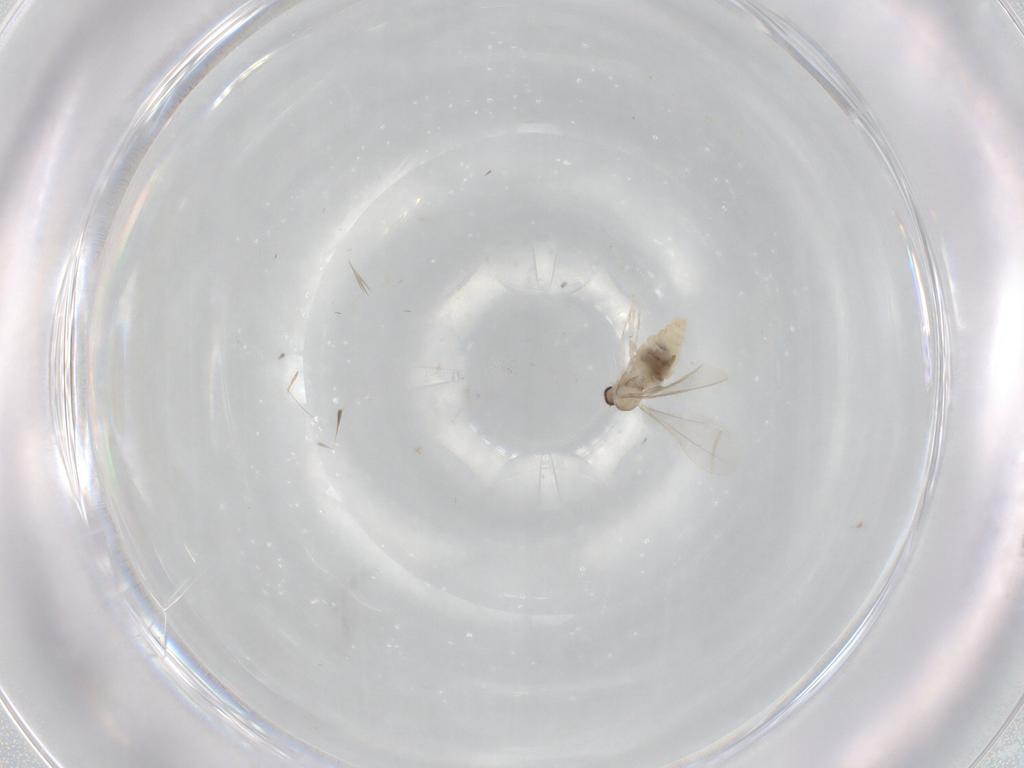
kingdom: Animalia
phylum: Arthropoda
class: Insecta
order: Diptera
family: Cecidomyiidae
